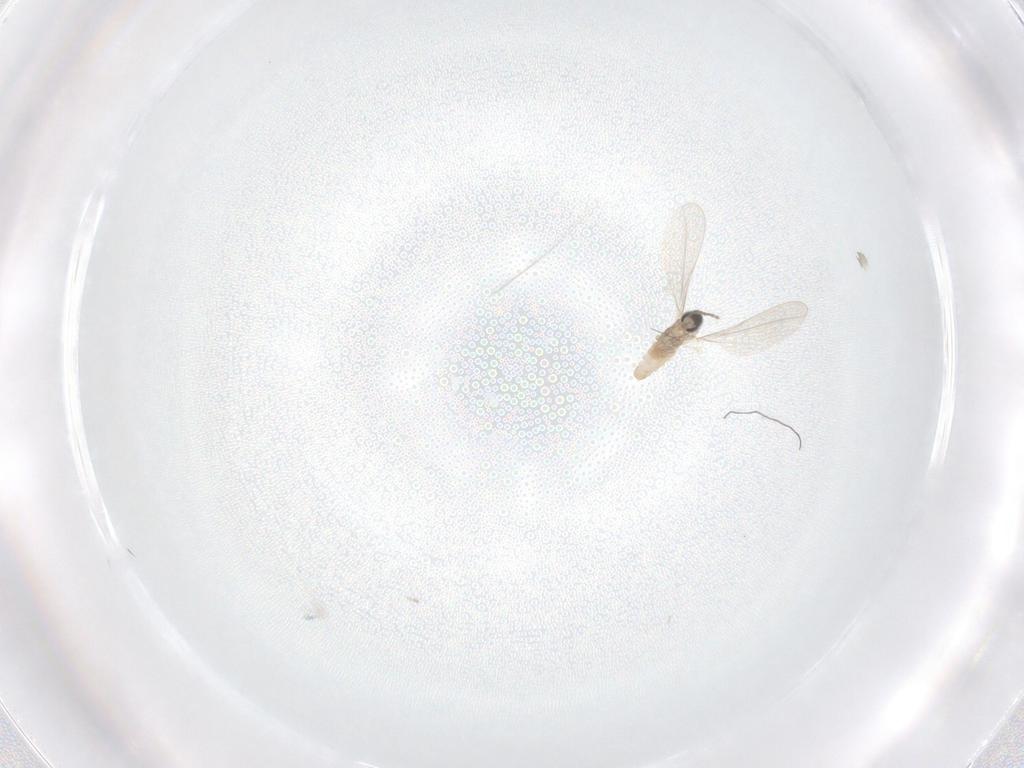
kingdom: Animalia
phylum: Arthropoda
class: Insecta
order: Diptera
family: Cecidomyiidae
